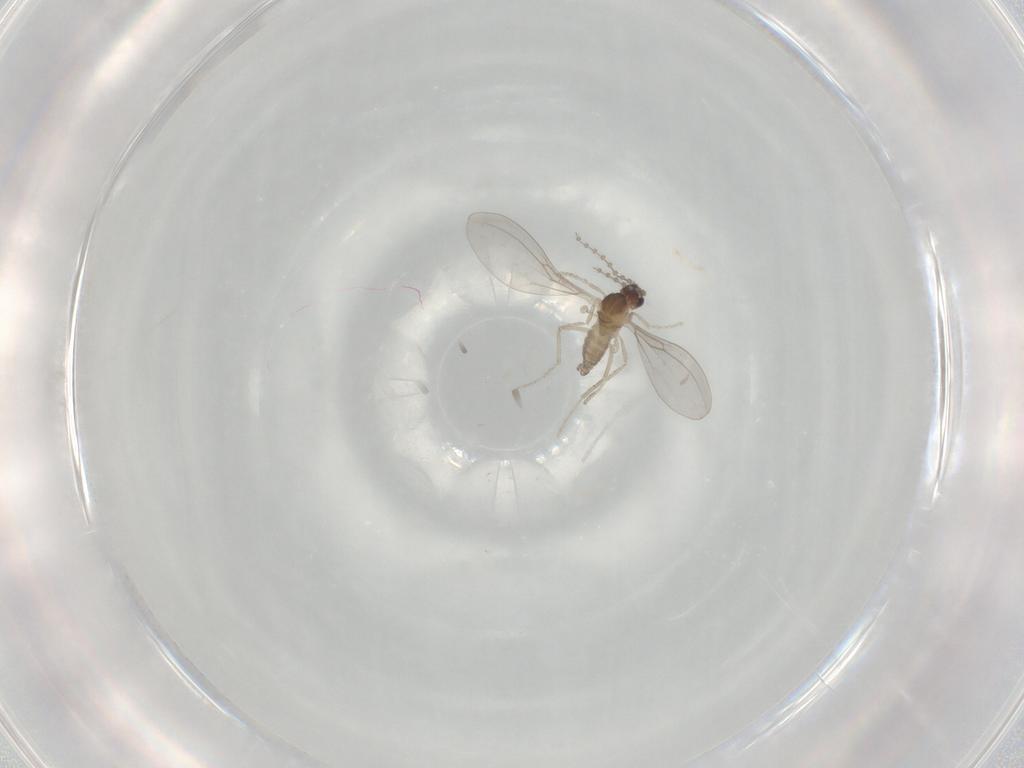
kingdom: Animalia
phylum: Arthropoda
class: Insecta
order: Diptera
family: Cecidomyiidae
